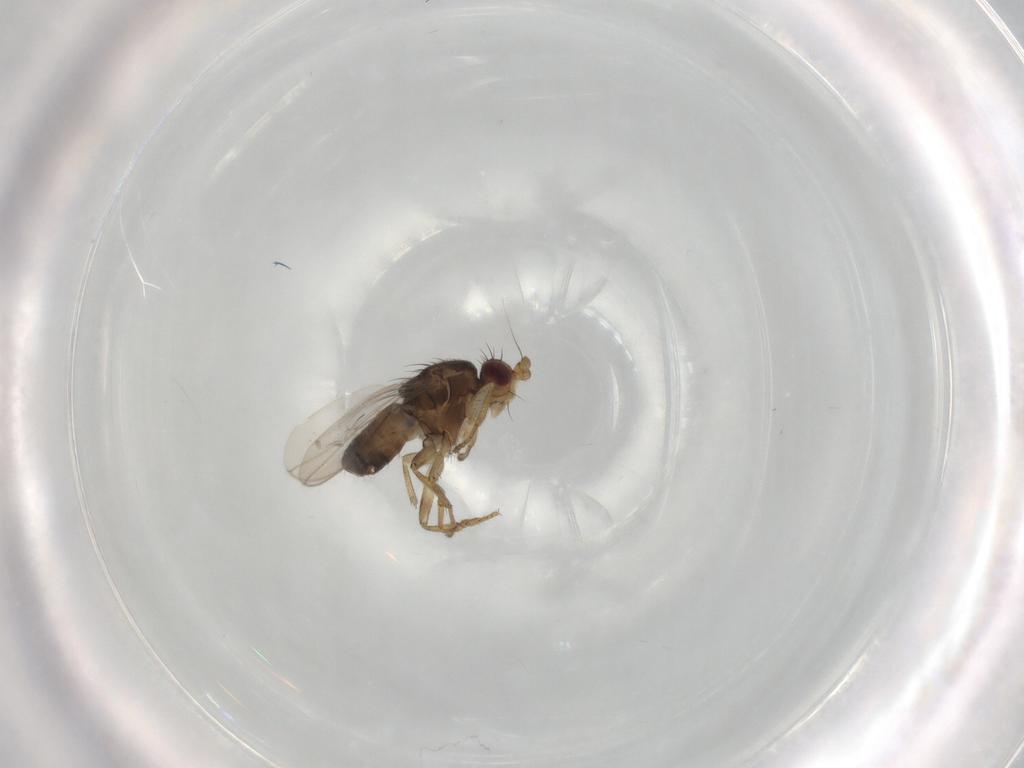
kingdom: Animalia
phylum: Arthropoda
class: Insecta
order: Diptera
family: Sphaeroceridae
